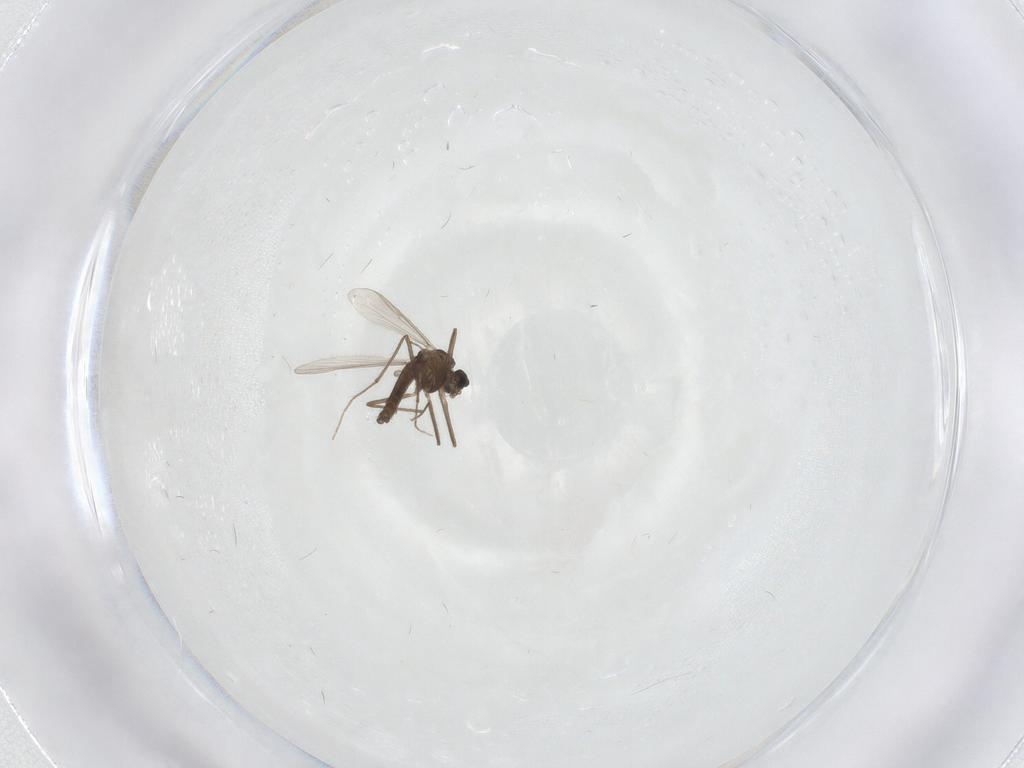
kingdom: Animalia
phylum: Arthropoda
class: Insecta
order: Diptera
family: Chironomidae
